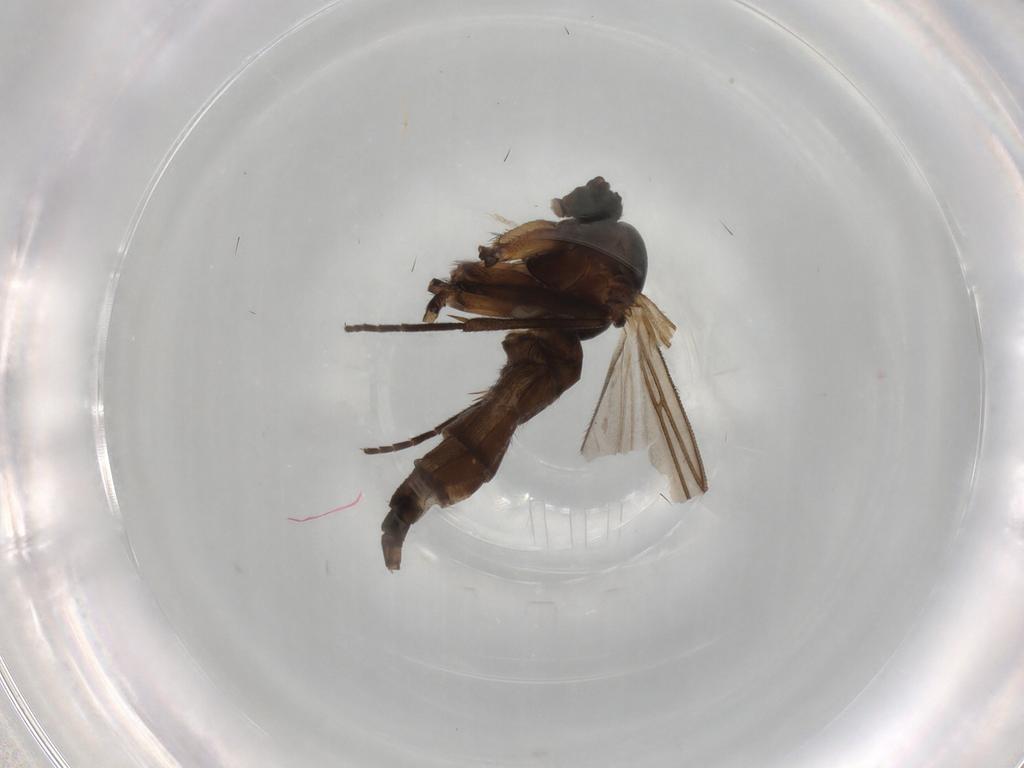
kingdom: Animalia
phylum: Arthropoda
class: Insecta
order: Diptera
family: Sciaridae
